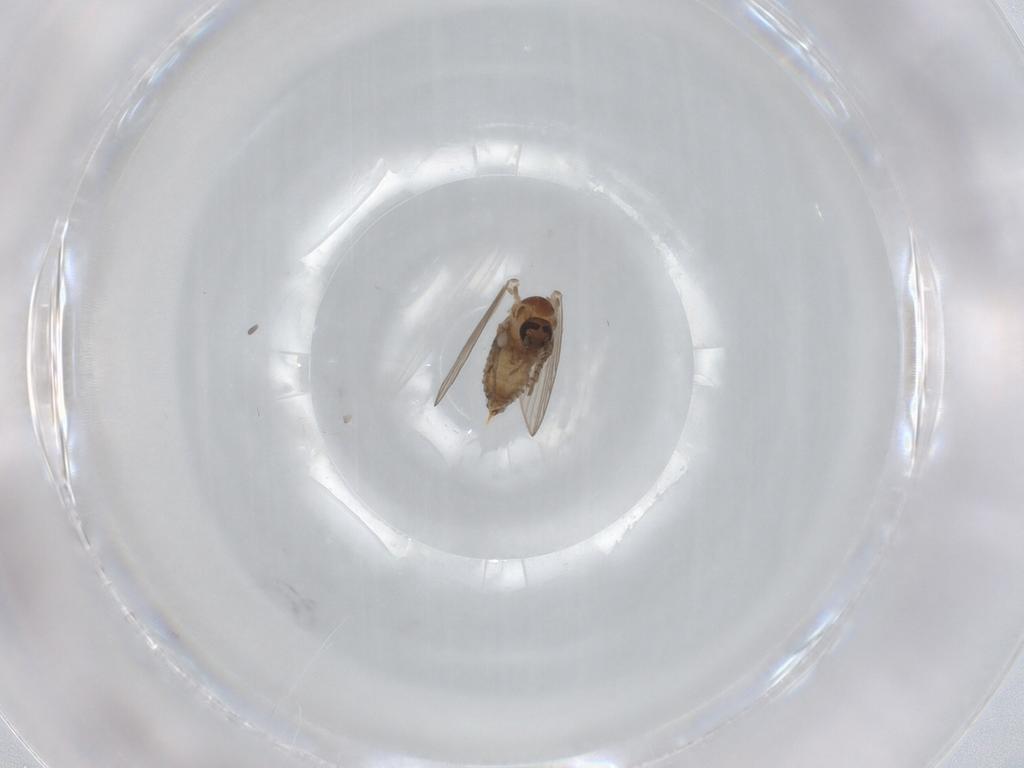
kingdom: Animalia
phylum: Arthropoda
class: Insecta
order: Diptera
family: Psychodidae
